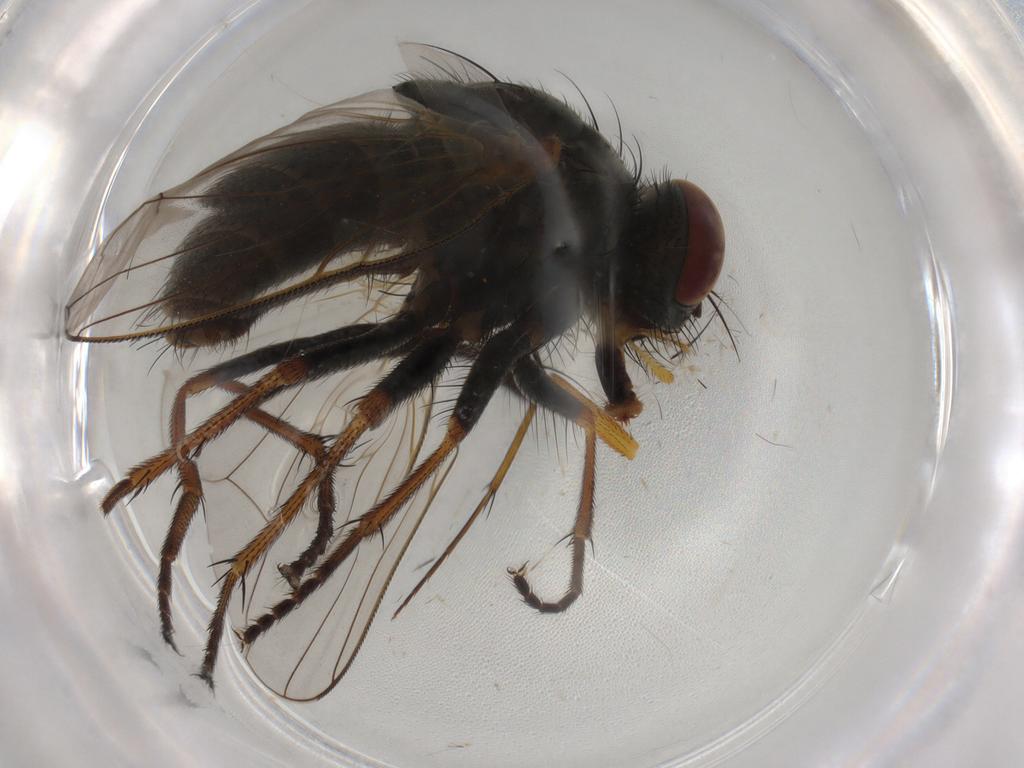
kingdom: Animalia
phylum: Arthropoda
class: Insecta
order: Diptera
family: Muscidae
